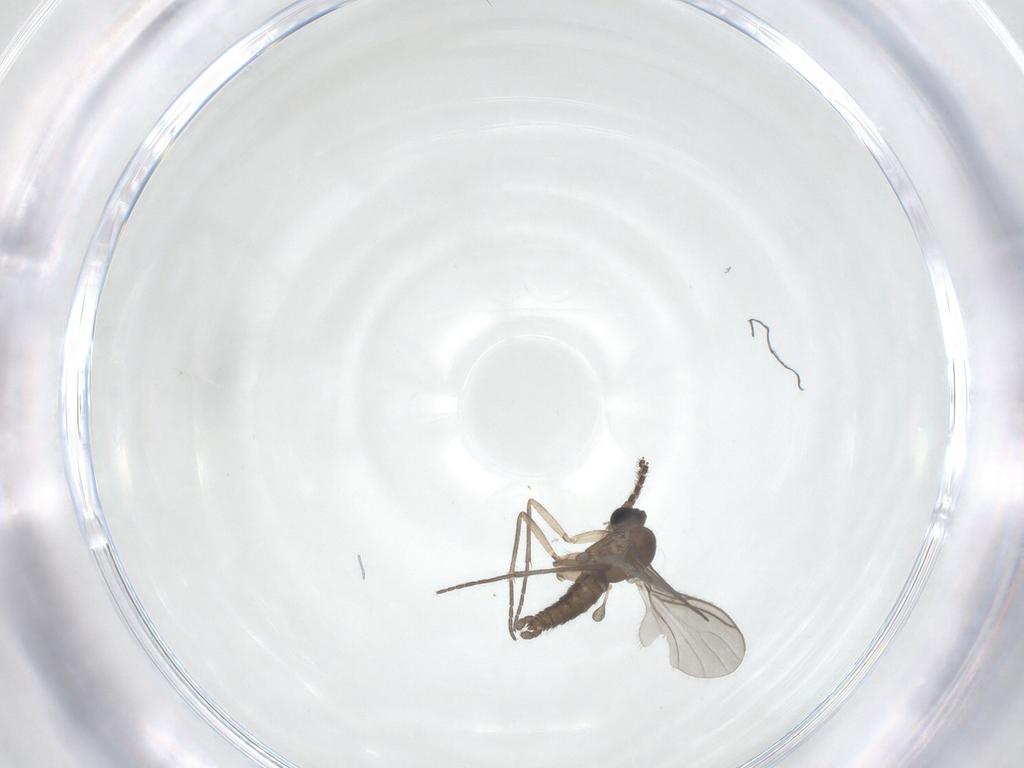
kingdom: Animalia
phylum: Arthropoda
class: Insecta
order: Diptera
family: Sciaridae
